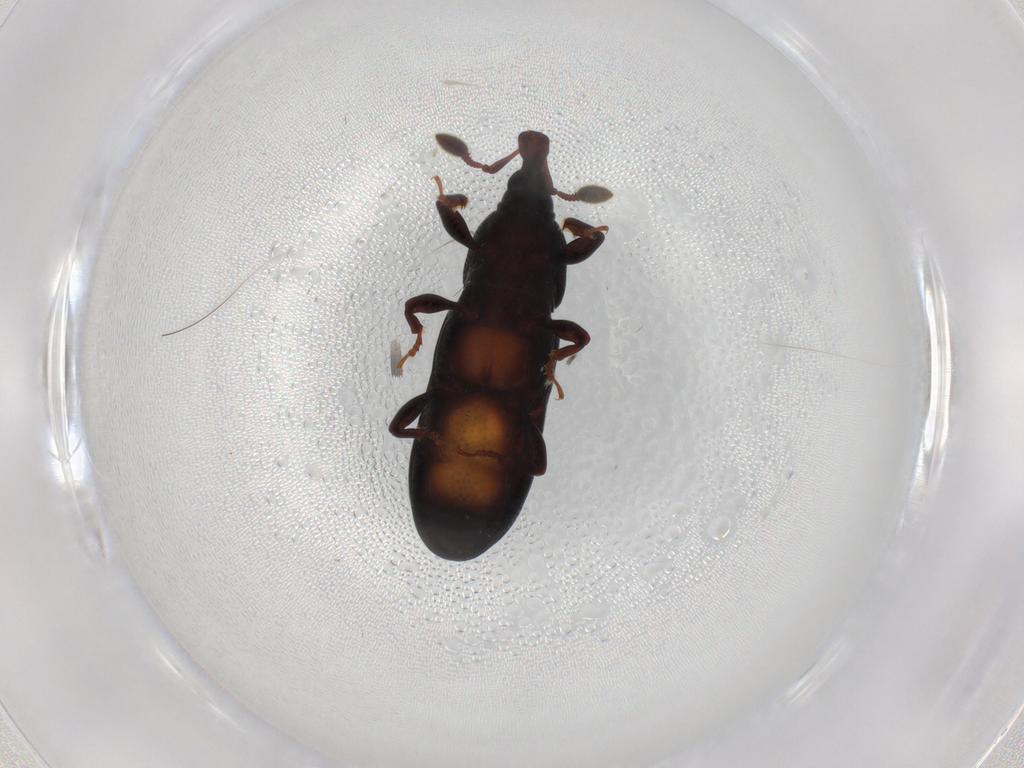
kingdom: Animalia
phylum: Arthropoda
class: Insecta
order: Coleoptera
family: Curculionidae
